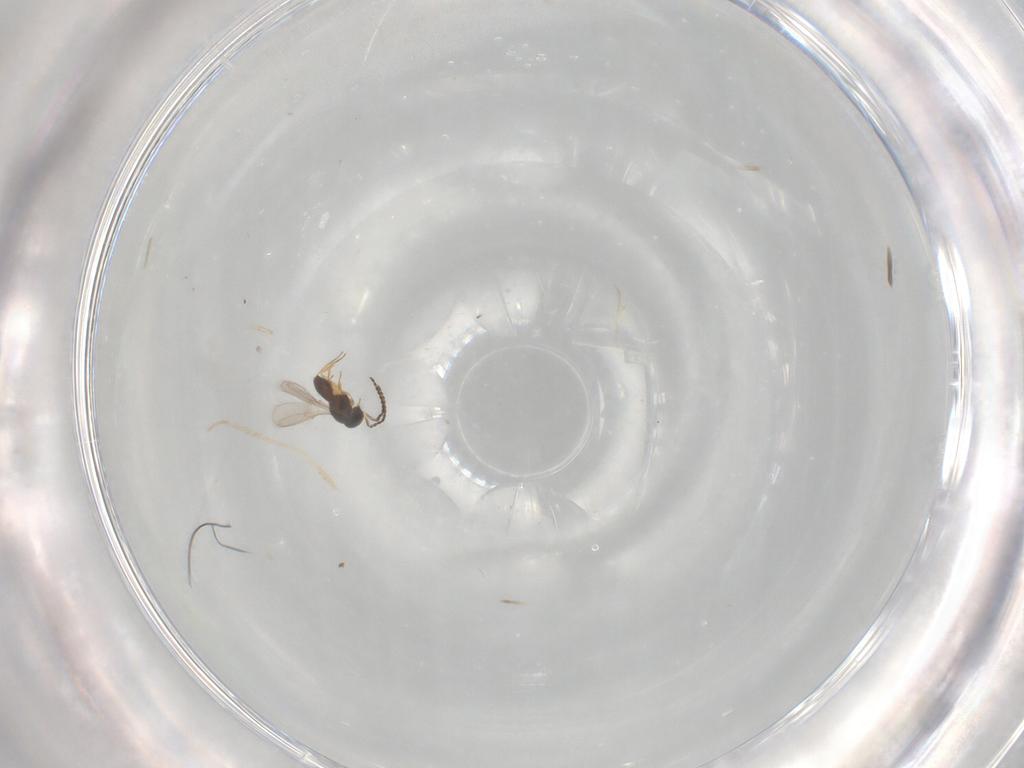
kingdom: Animalia
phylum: Arthropoda
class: Insecta
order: Hymenoptera
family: Scelionidae
